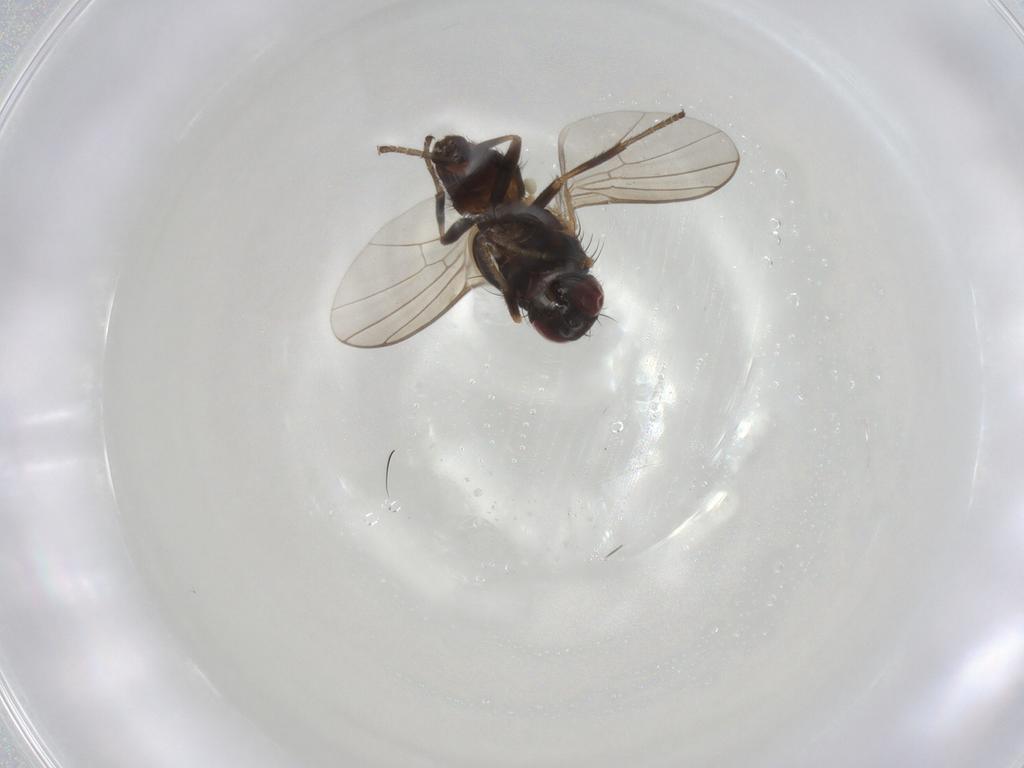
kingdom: Animalia
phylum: Arthropoda
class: Insecta
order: Diptera
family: Agromyzidae
